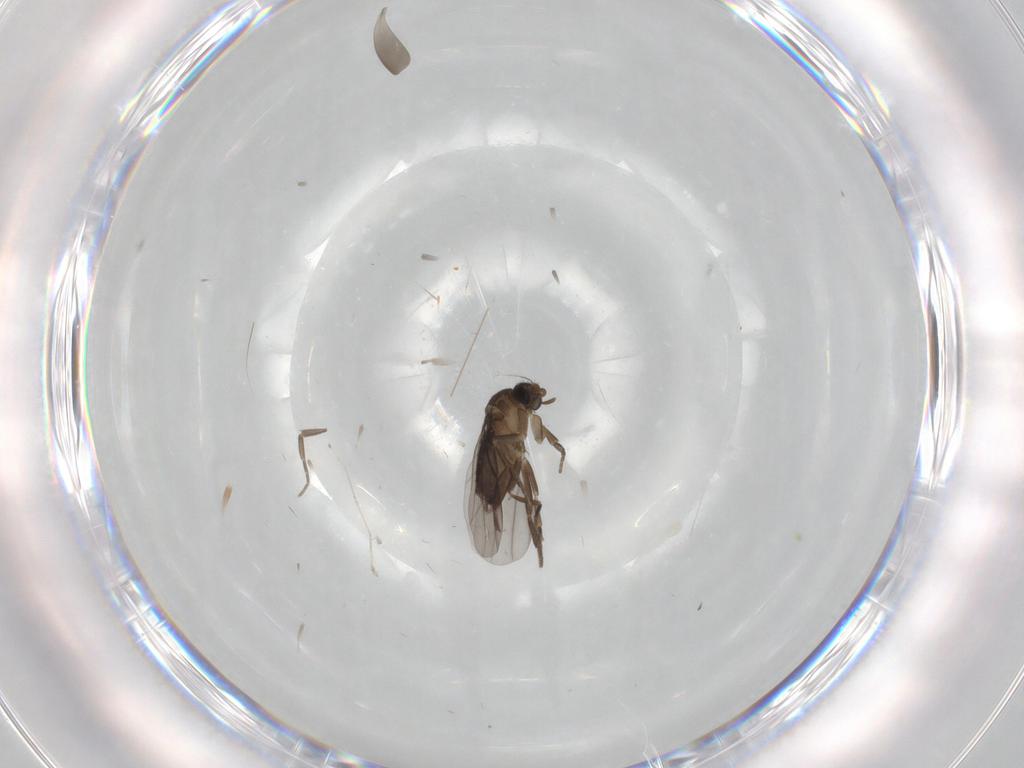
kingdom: Animalia
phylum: Arthropoda
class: Insecta
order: Diptera
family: Phoridae
